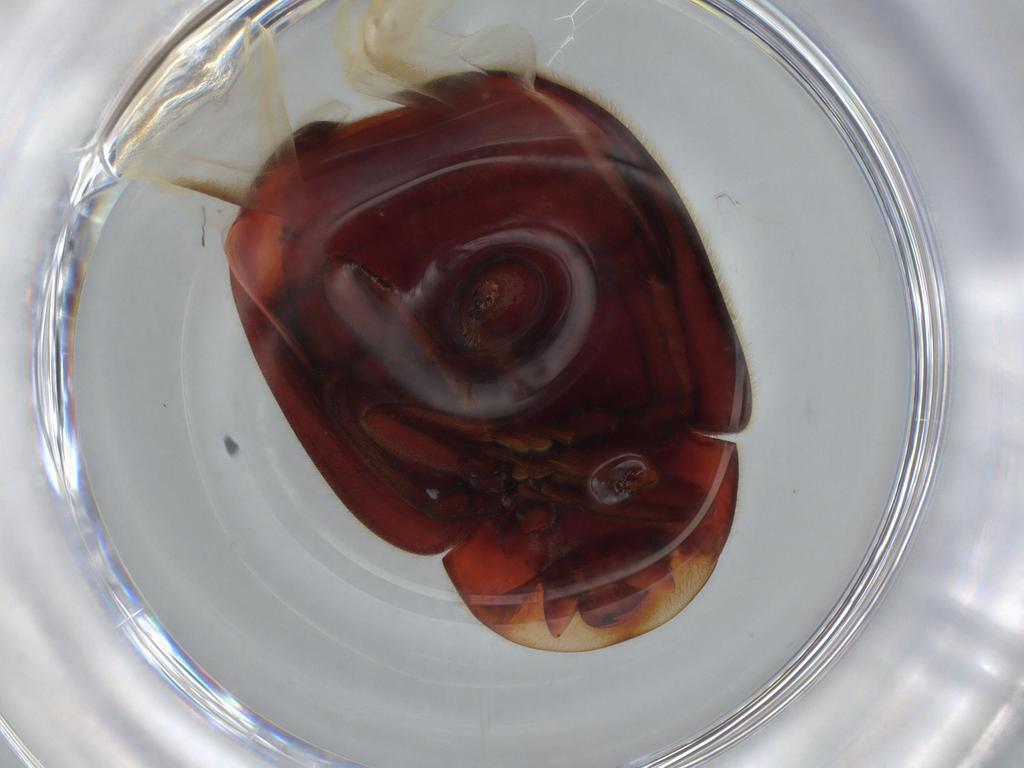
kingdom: Animalia
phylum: Arthropoda
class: Insecta
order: Coleoptera
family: Coccinellidae
